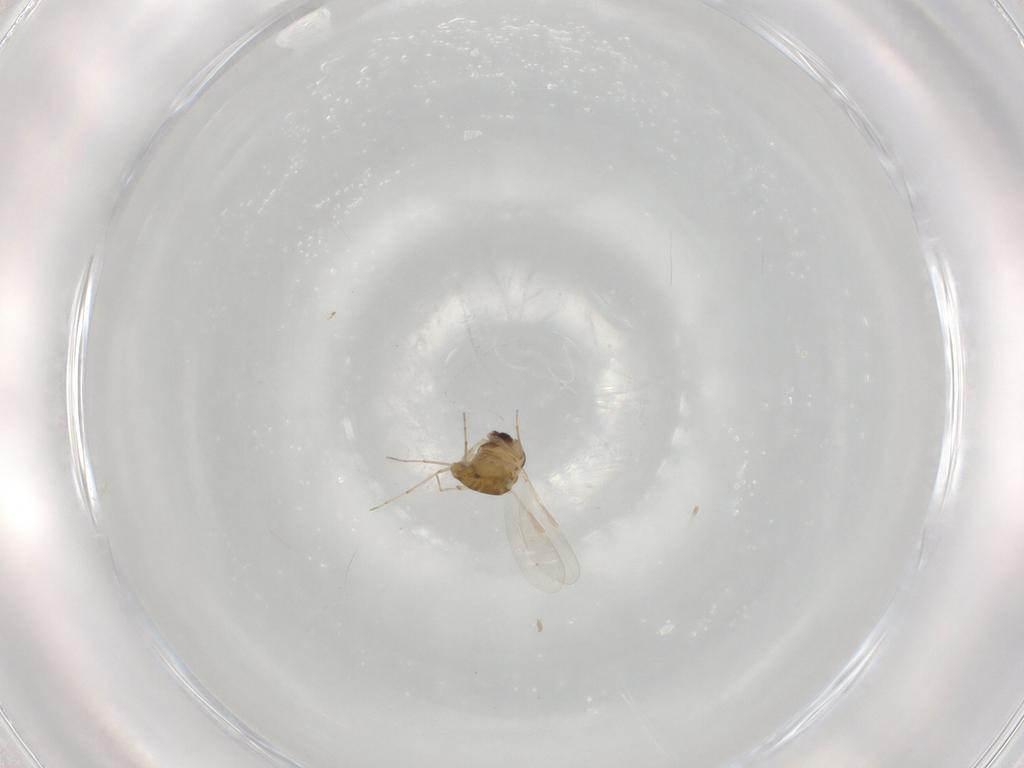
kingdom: Animalia
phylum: Arthropoda
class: Insecta
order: Diptera
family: Chironomidae
